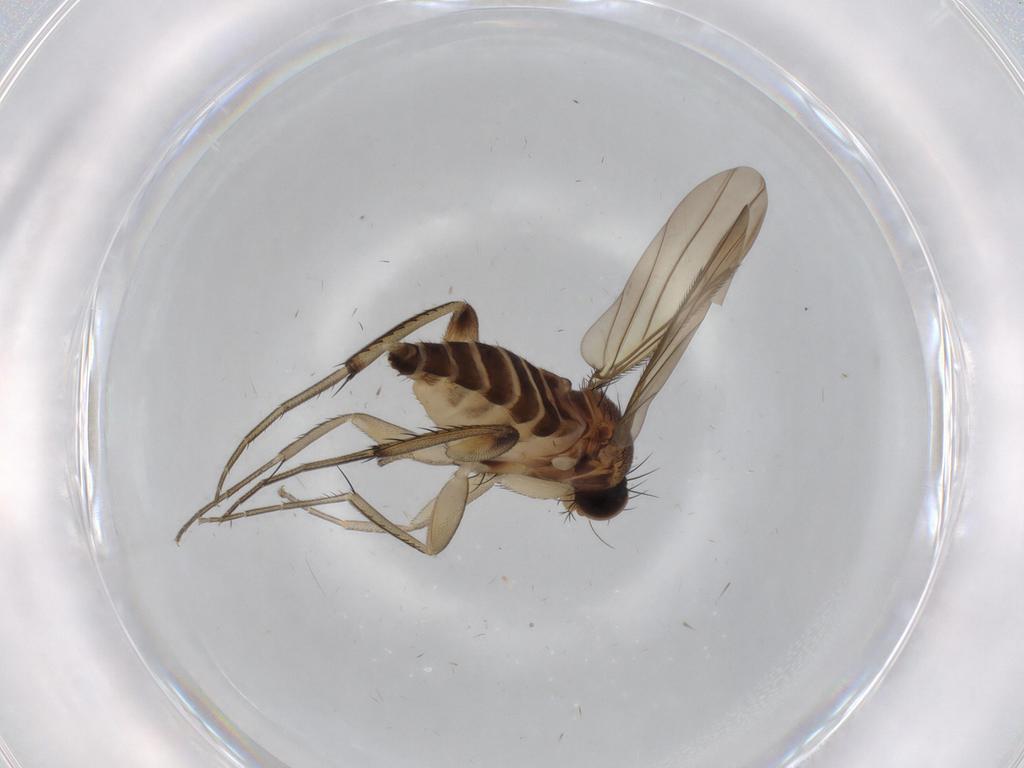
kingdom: Animalia
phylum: Arthropoda
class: Insecta
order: Diptera
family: Phoridae
